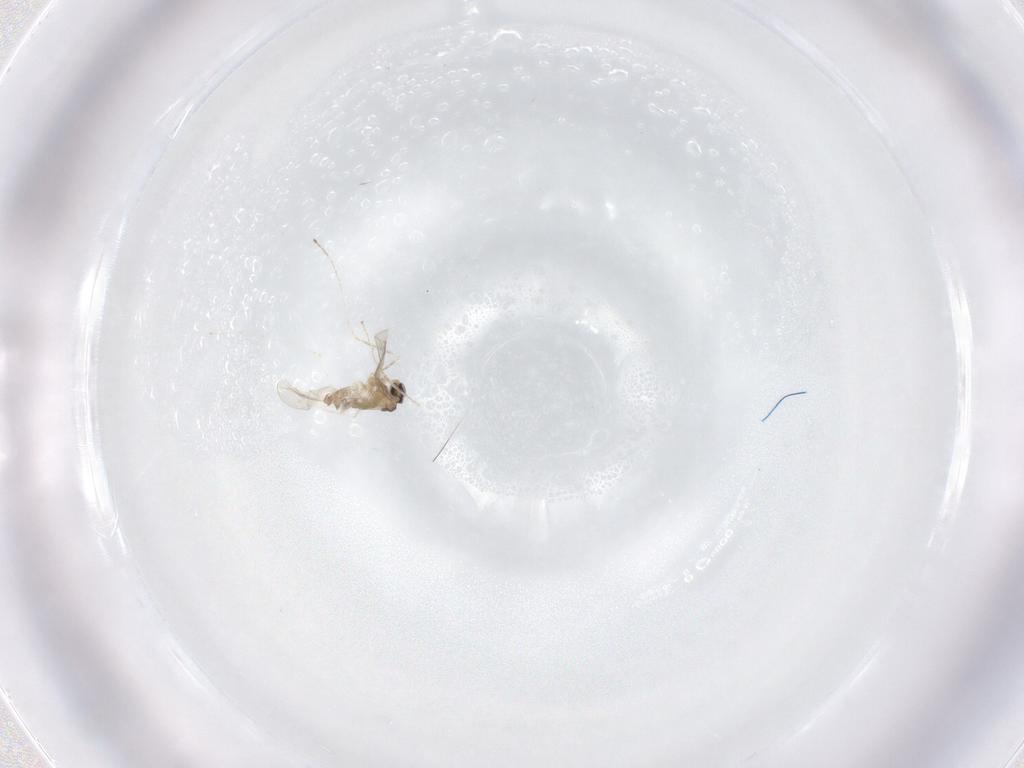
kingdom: Animalia
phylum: Arthropoda
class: Insecta
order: Diptera
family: Cecidomyiidae
